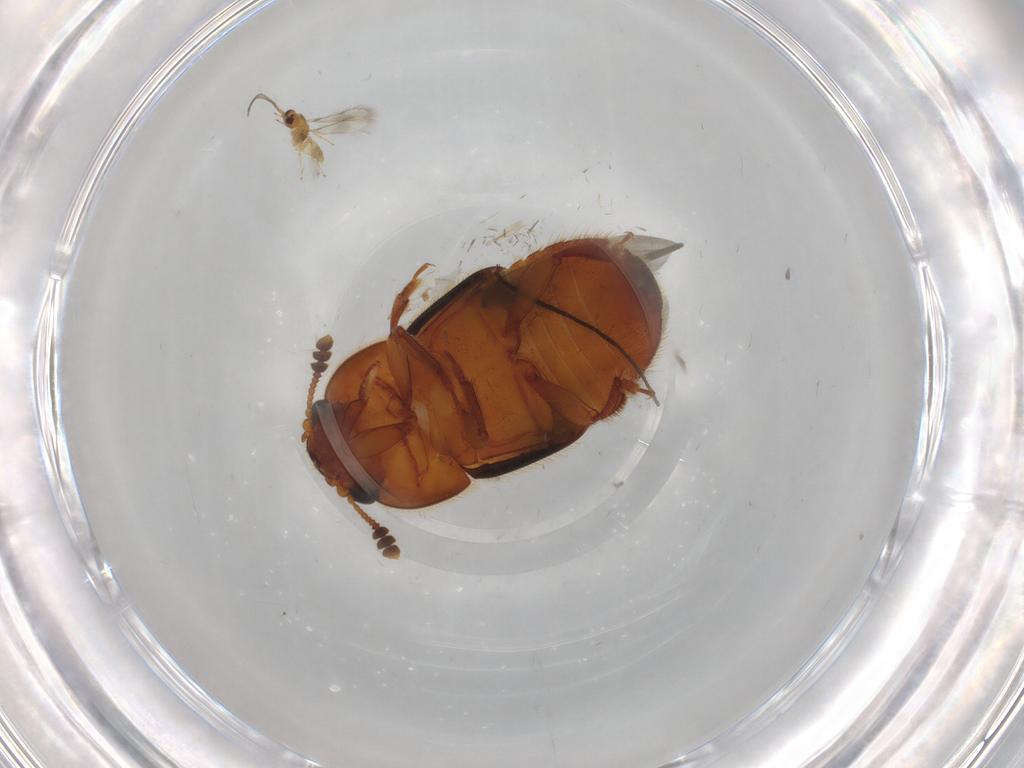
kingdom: Animalia
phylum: Arthropoda
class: Insecta
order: Coleoptera
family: Nitidulidae
